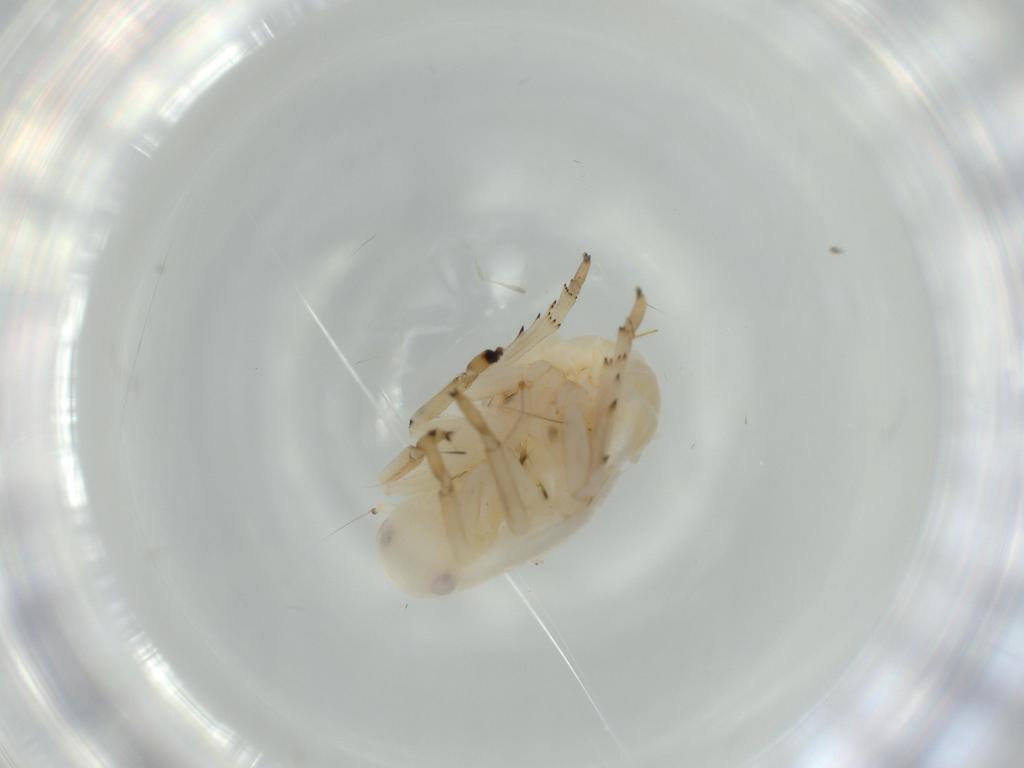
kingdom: Animalia
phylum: Arthropoda
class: Insecta
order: Hemiptera
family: Flatidae
